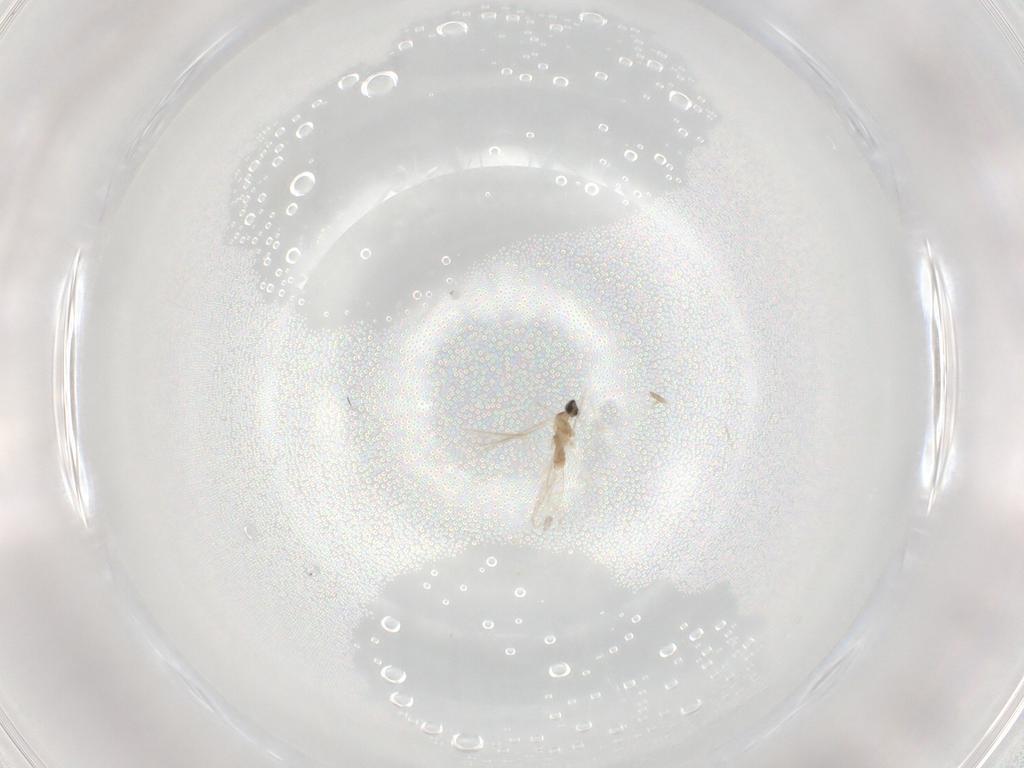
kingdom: Animalia
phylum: Arthropoda
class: Insecta
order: Diptera
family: Cecidomyiidae
